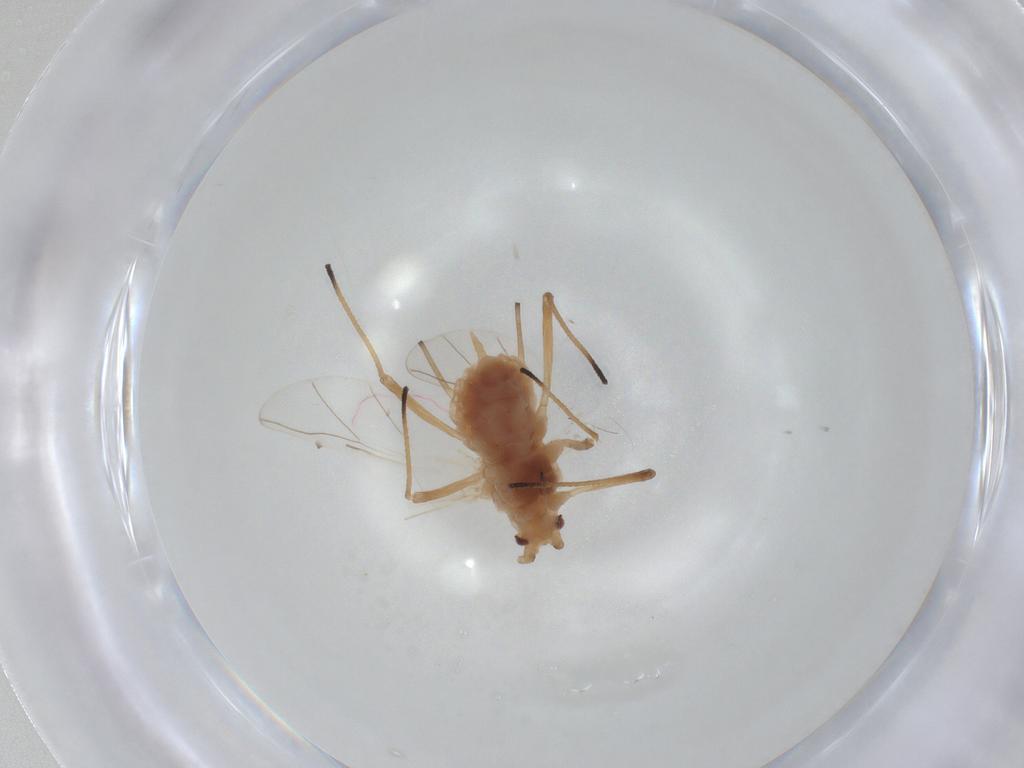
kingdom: Animalia
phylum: Arthropoda
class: Insecta
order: Hemiptera
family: Aphididae
